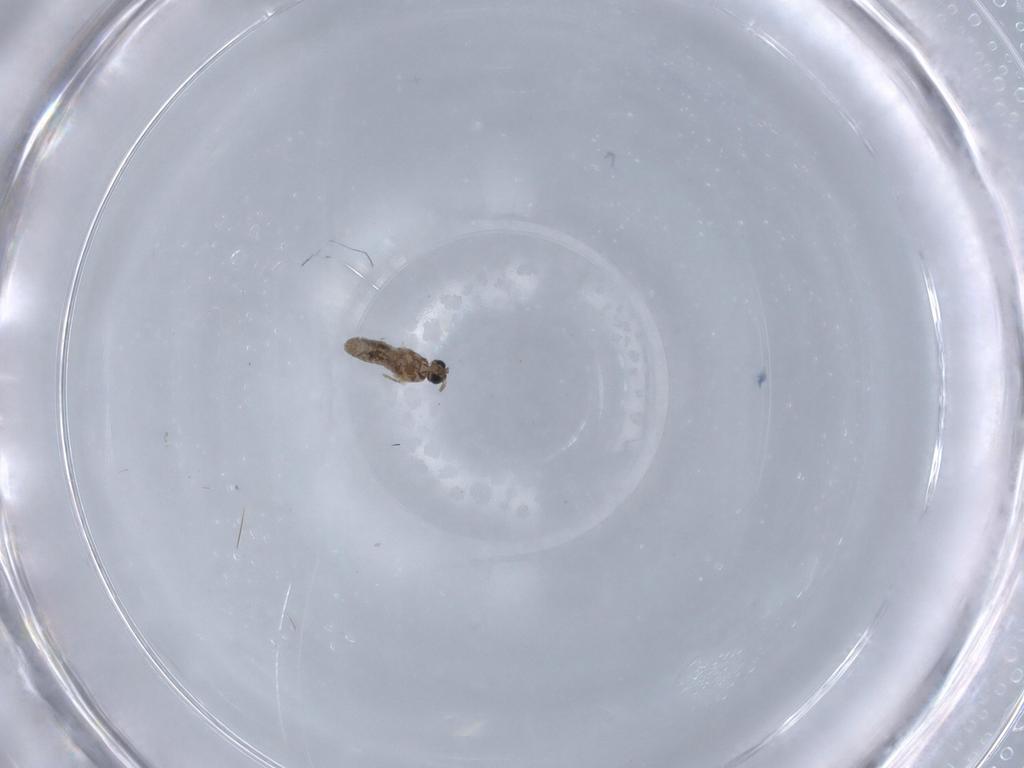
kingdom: Animalia
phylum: Arthropoda
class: Insecta
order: Diptera
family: Cecidomyiidae
